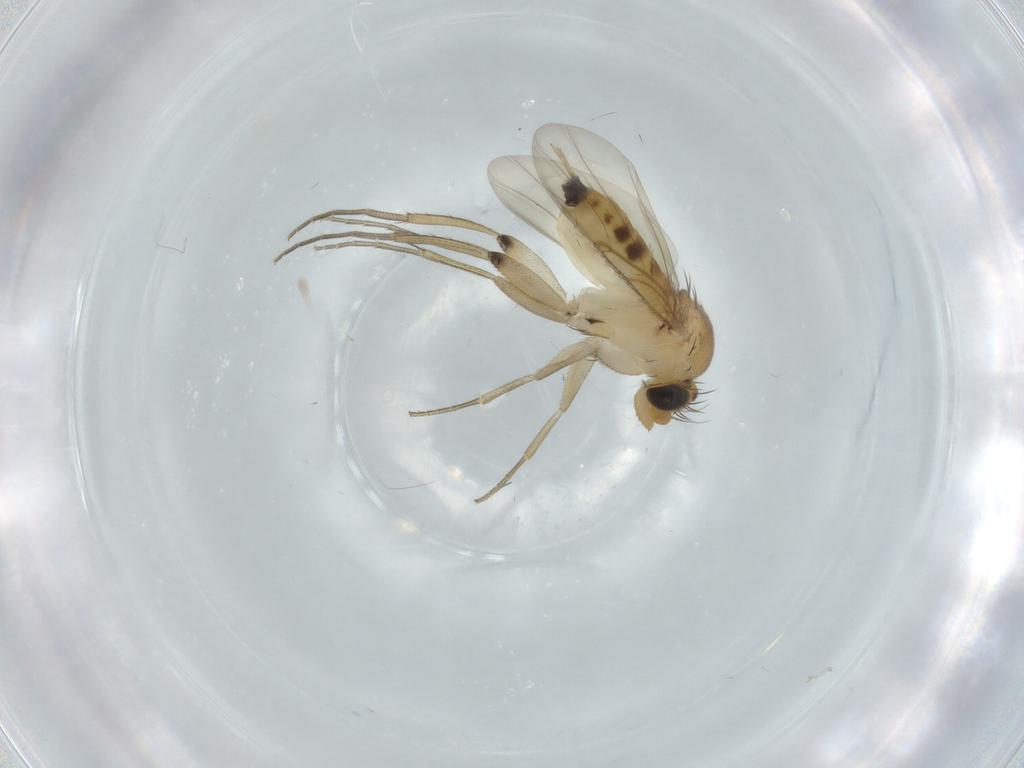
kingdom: Animalia
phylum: Arthropoda
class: Insecta
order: Diptera
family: Phoridae
